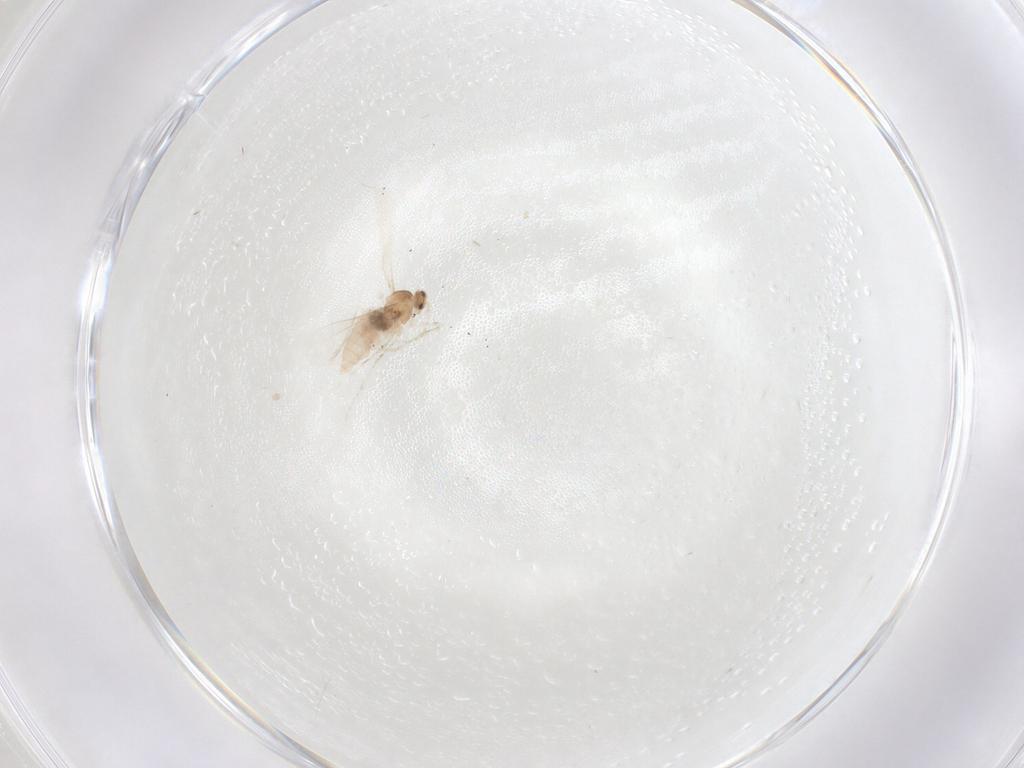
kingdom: Animalia
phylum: Arthropoda
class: Insecta
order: Diptera
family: Cecidomyiidae
